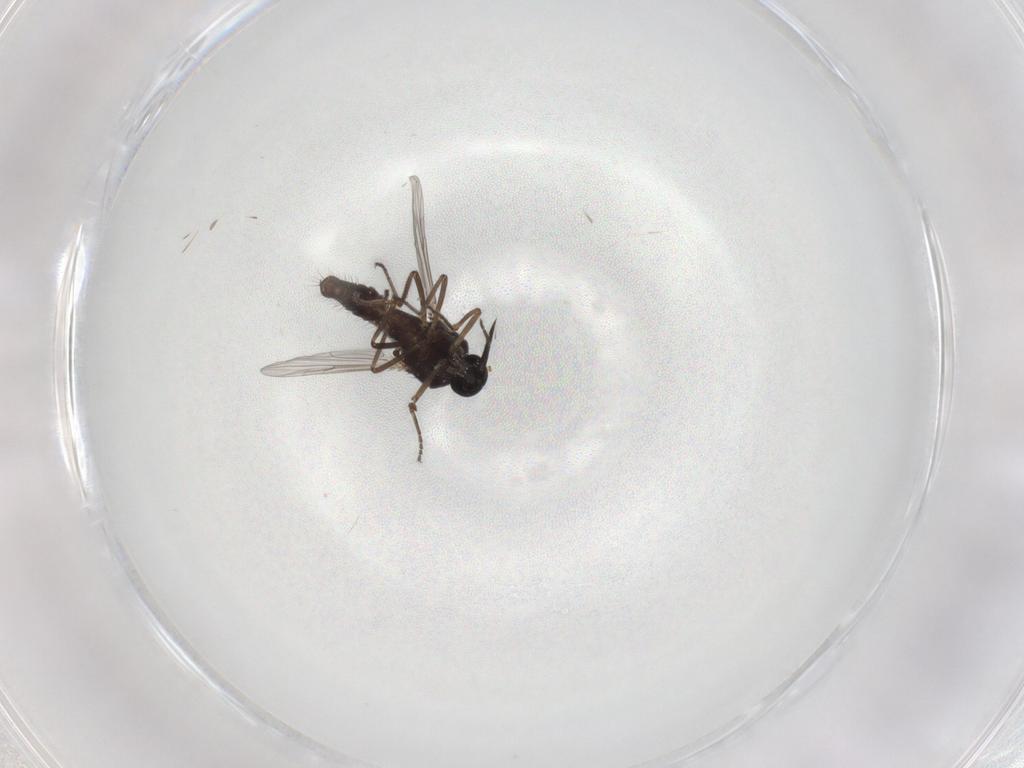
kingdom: Animalia
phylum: Arthropoda
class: Insecta
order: Diptera
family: Ceratopogonidae
